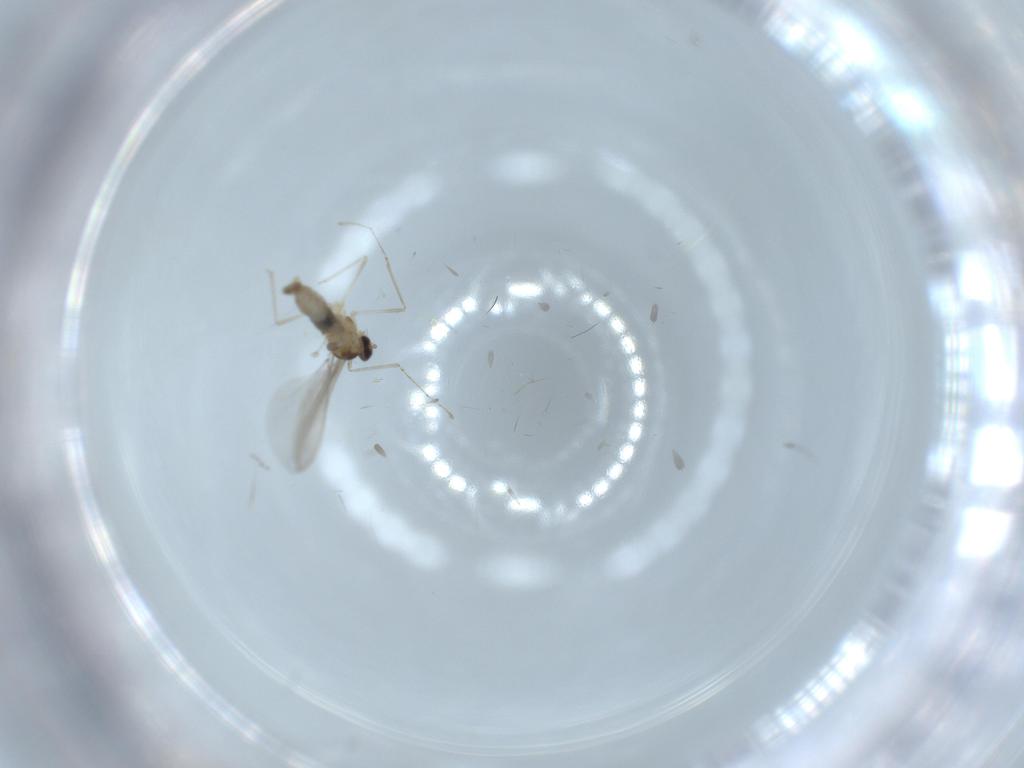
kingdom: Animalia
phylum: Arthropoda
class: Insecta
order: Diptera
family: Cecidomyiidae
